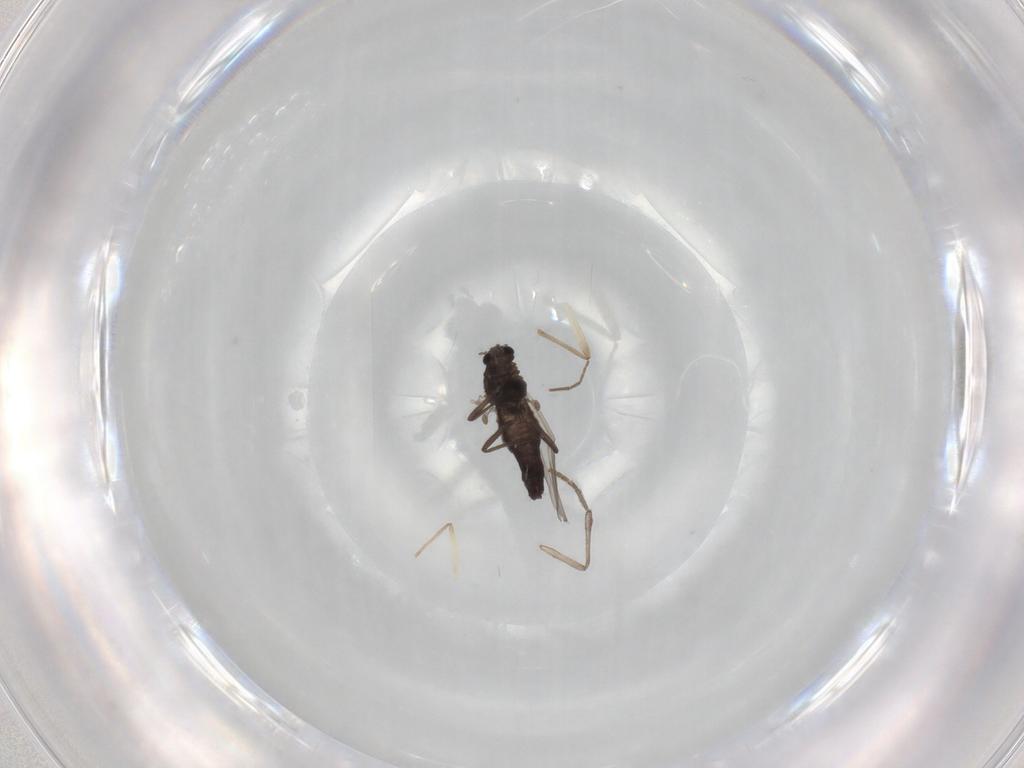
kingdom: Animalia
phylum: Arthropoda
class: Insecta
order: Diptera
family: Chironomidae
